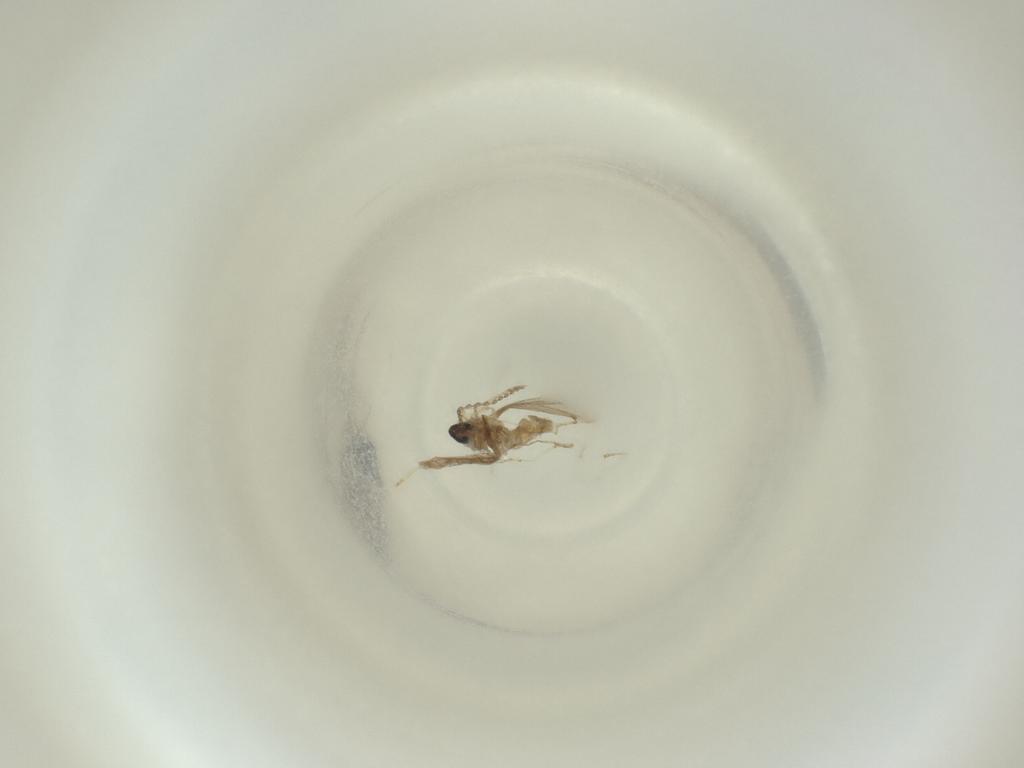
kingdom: Animalia
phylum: Arthropoda
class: Insecta
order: Diptera
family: Cecidomyiidae
